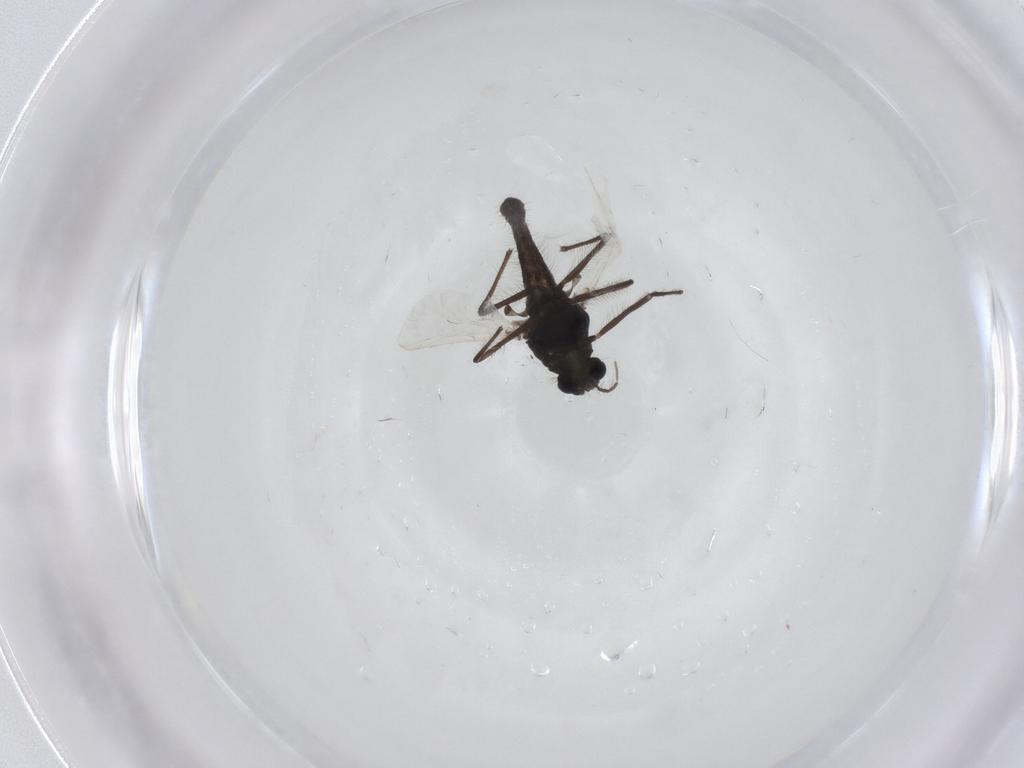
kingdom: Animalia
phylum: Arthropoda
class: Insecta
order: Diptera
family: Chironomidae
